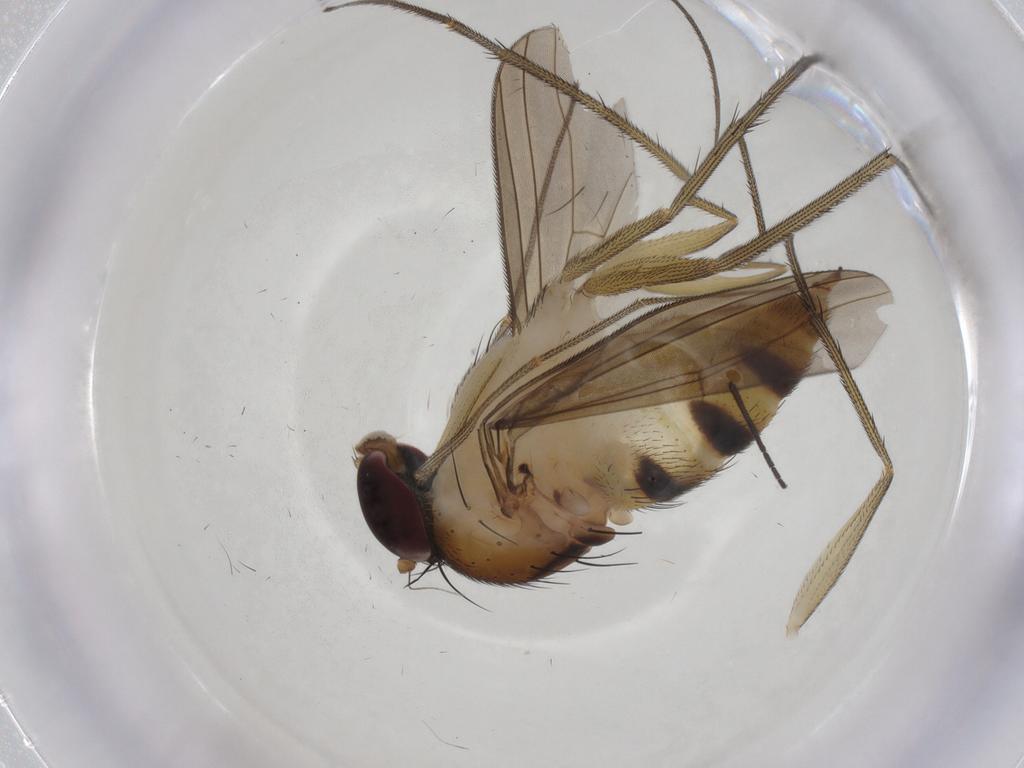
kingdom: Animalia
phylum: Arthropoda
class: Insecta
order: Diptera
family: Dolichopodidae
